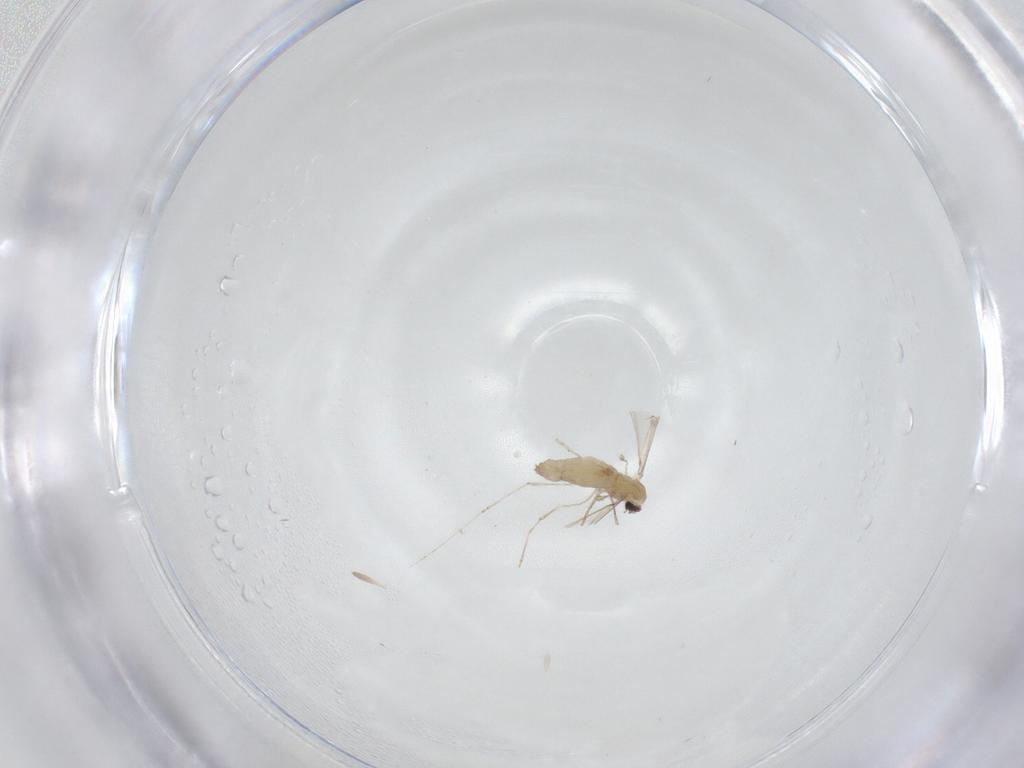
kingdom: Animalia
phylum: Arthropoda
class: Insecta
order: Diptera
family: Cecidomyiidae
